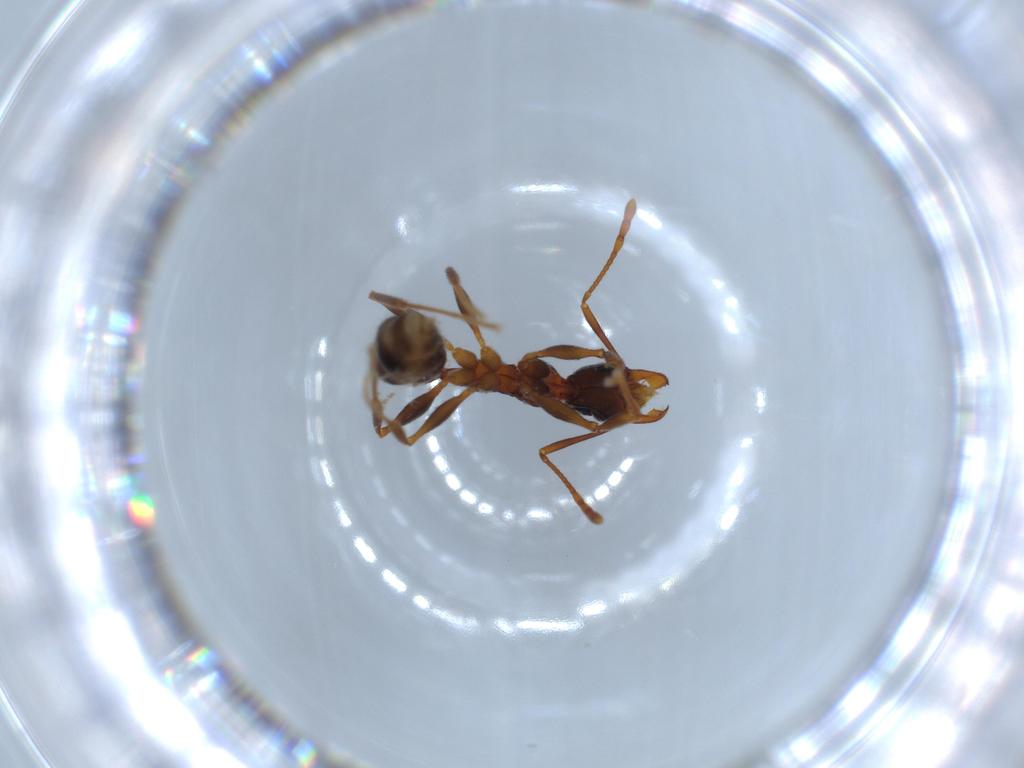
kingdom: Animalia
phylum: Arthropoda
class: Insecta
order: Hymenoptera
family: Formicidae
